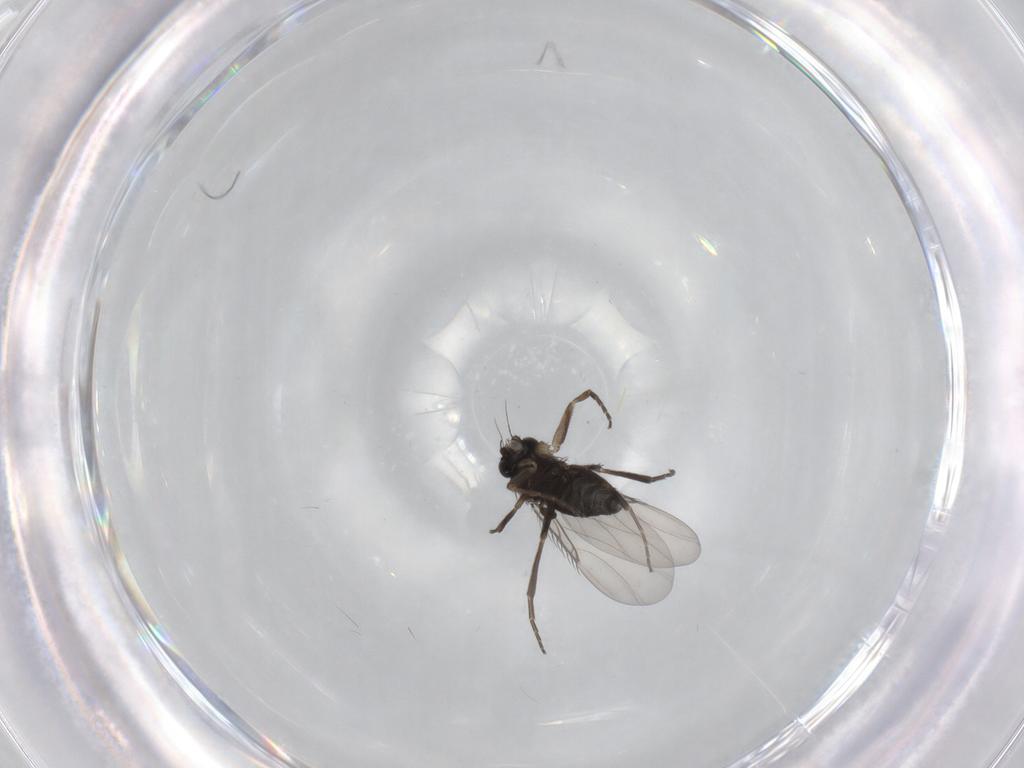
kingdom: Animalia
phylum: Arthropoda
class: Insecta
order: Diptera
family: Phoridae
